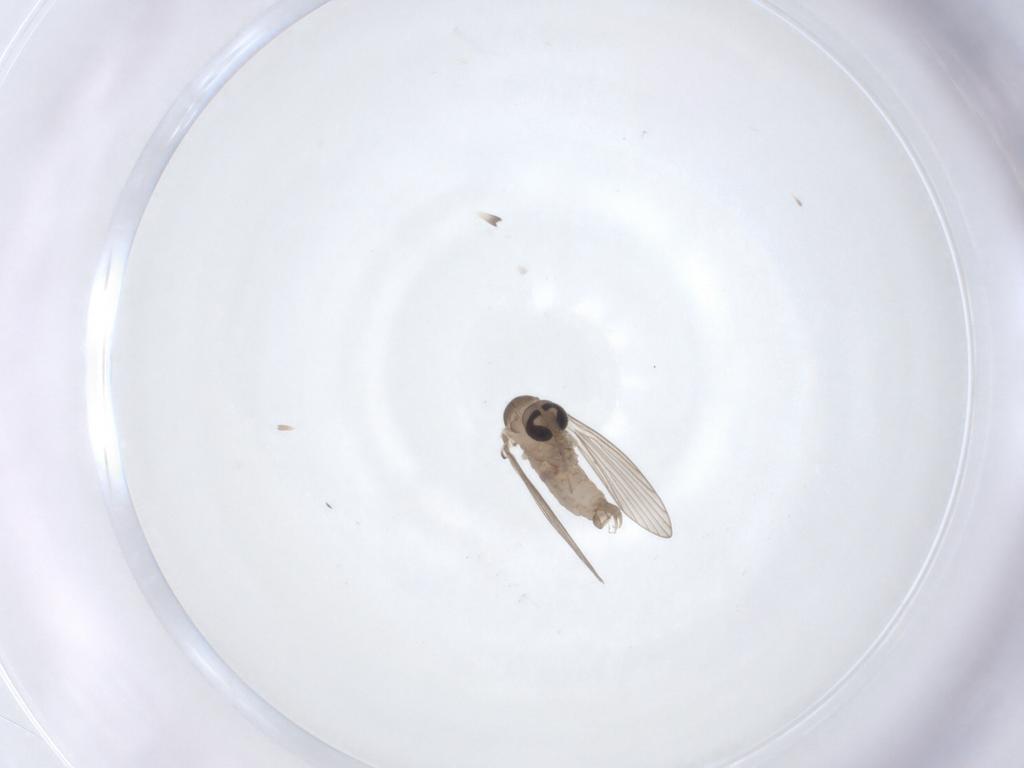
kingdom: Animalia
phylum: Arthropoda
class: Insecta
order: Diptera
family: Psychodidae
